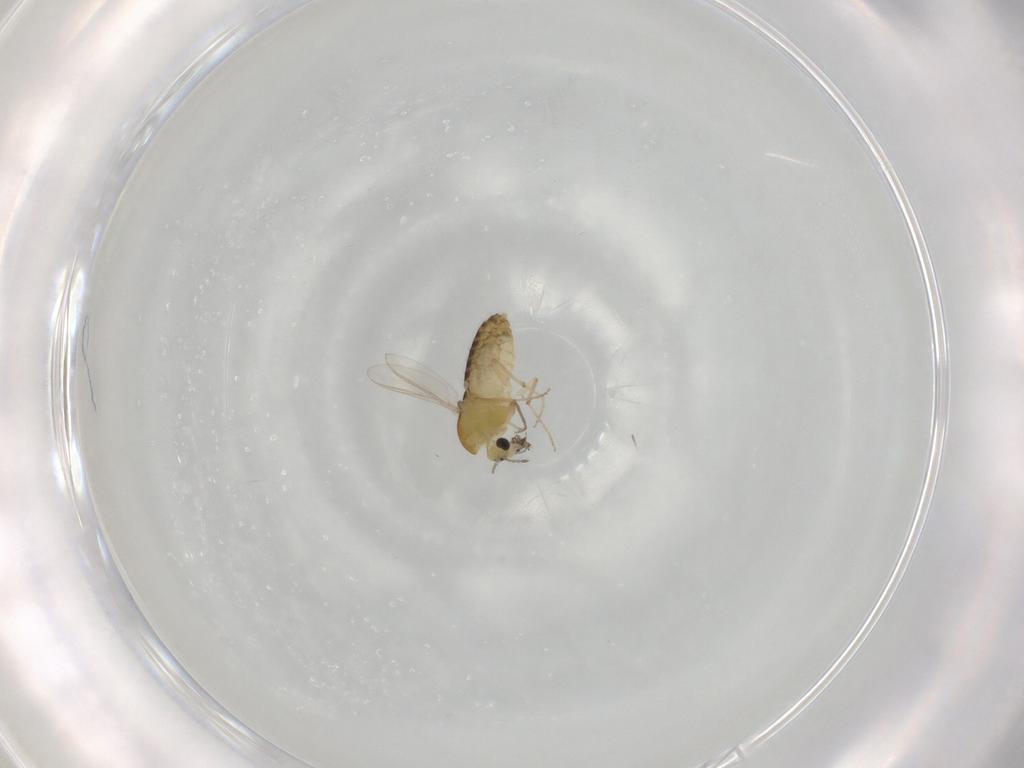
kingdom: Animalia
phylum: Arthropoda
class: Insecta
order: Diptera
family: Cecidomyiidae
